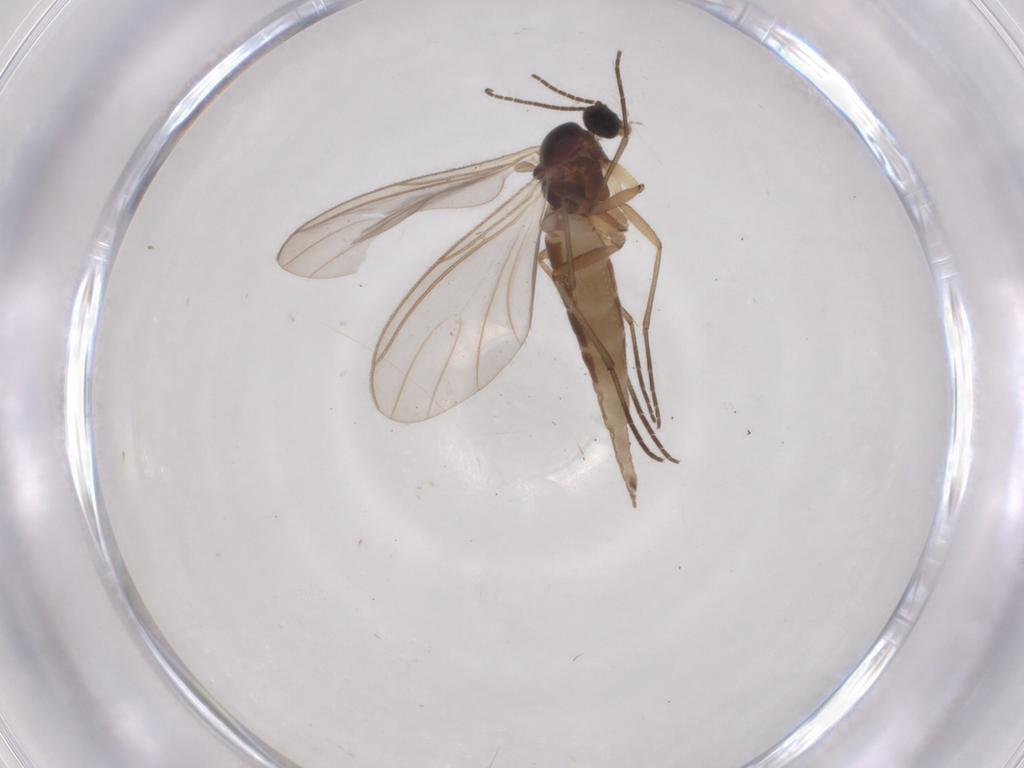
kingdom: Animalia
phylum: Arthropoda
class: Insecta
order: Diptera
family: Sciaridae
